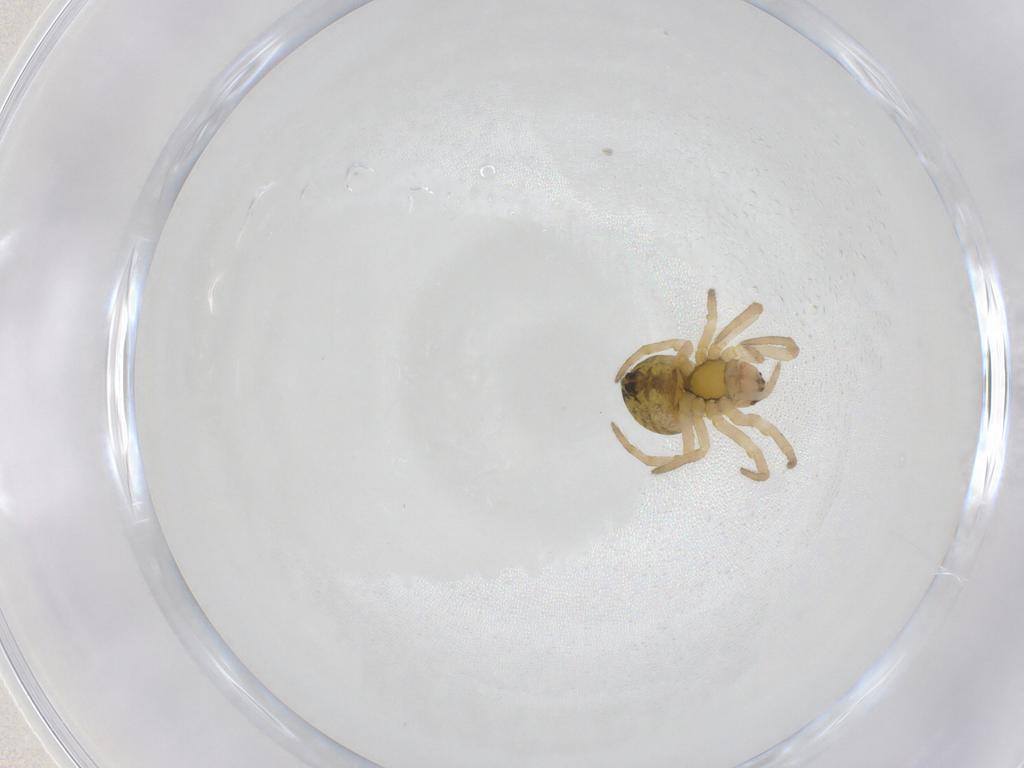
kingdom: Animalia
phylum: Arthropoda
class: Arachnida
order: Araneae
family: Araneidae
